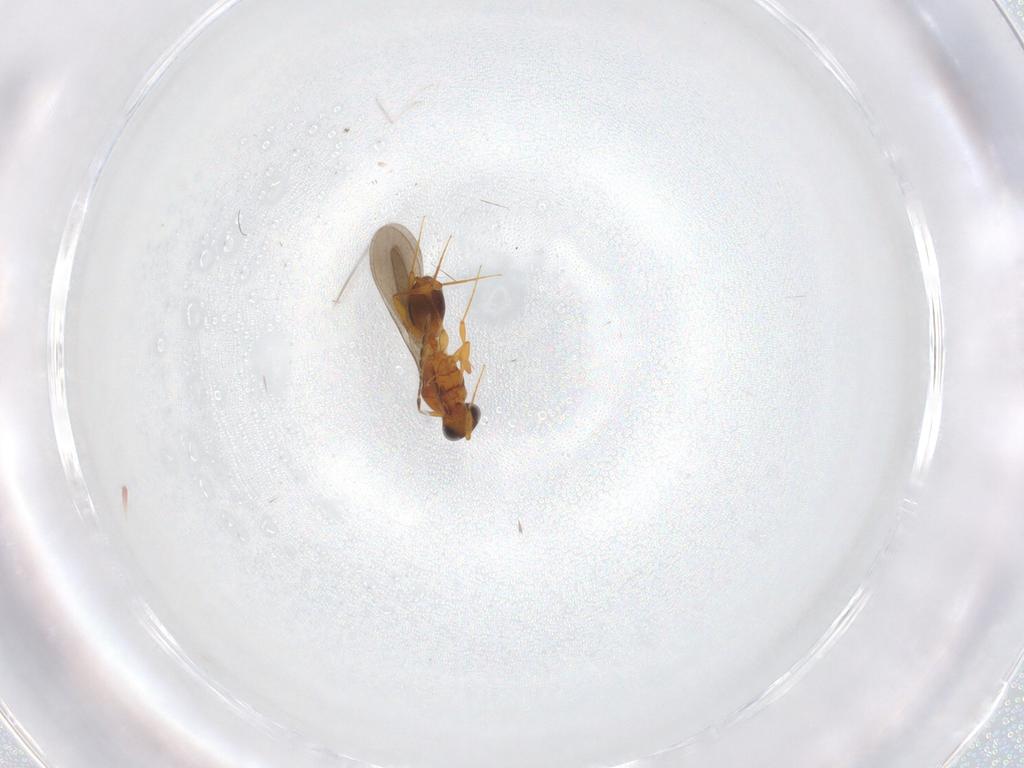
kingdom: Animalia
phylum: Arthropoda
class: Insecta
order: Hymenoptera
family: Platygastridae
